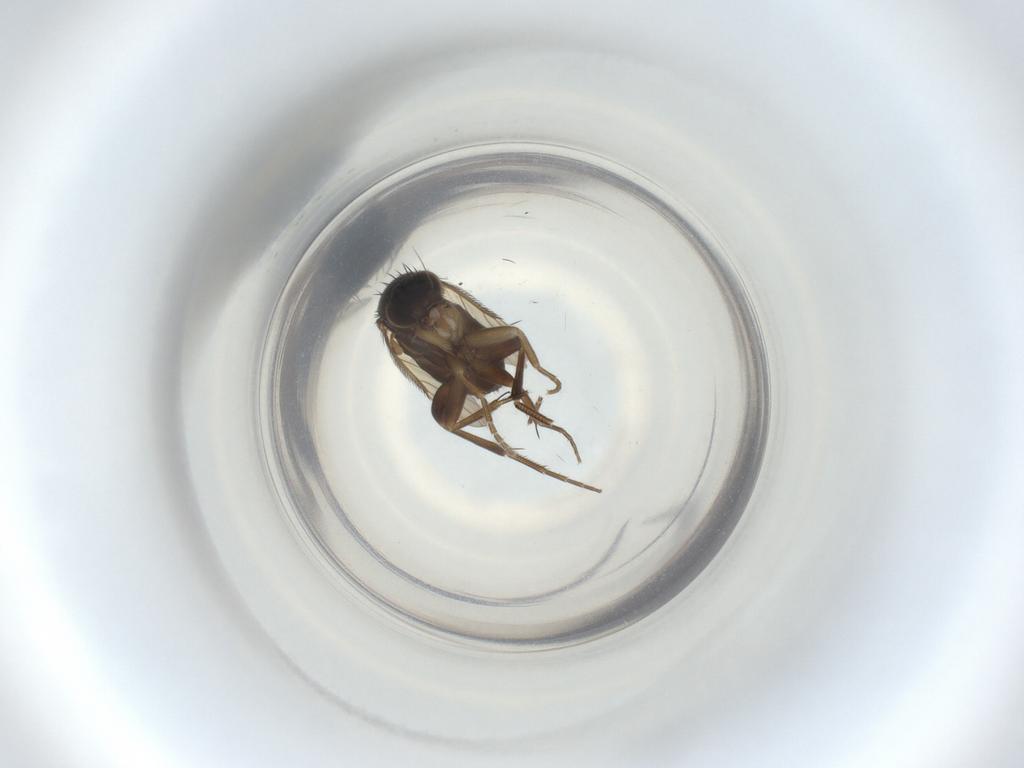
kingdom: Animalia
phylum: Arthropoda
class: Insecta
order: Diptera
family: Phoridae
